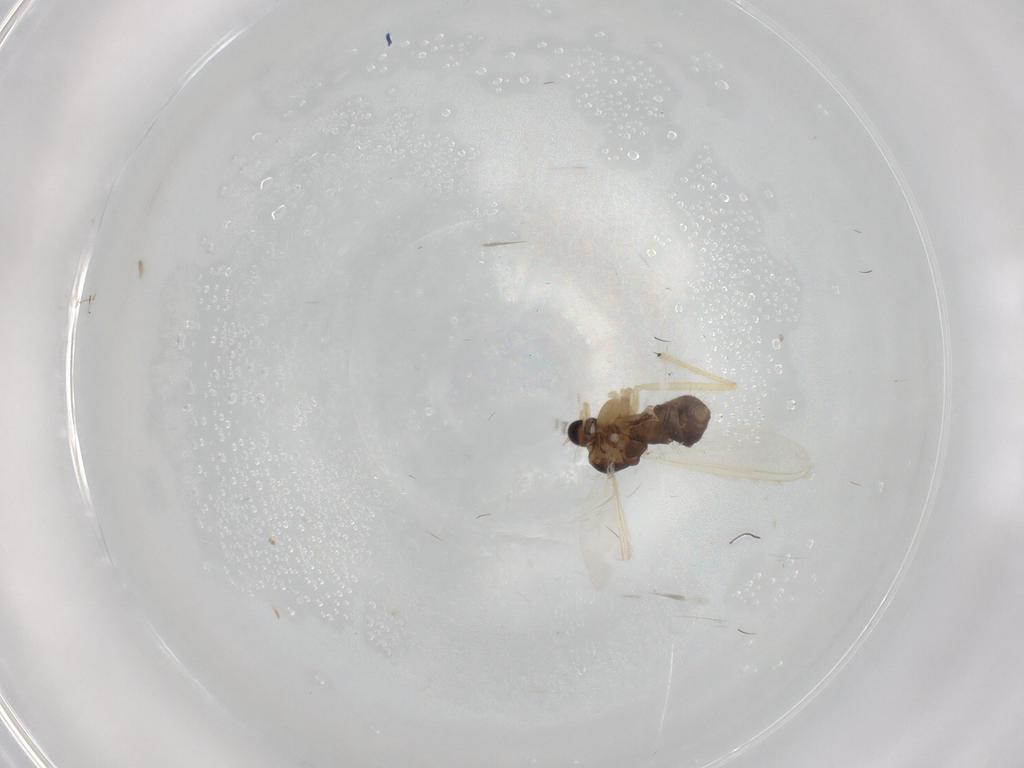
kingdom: Animalia
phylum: Arthropoda
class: Insecta
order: Diptera
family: Chironomidae
